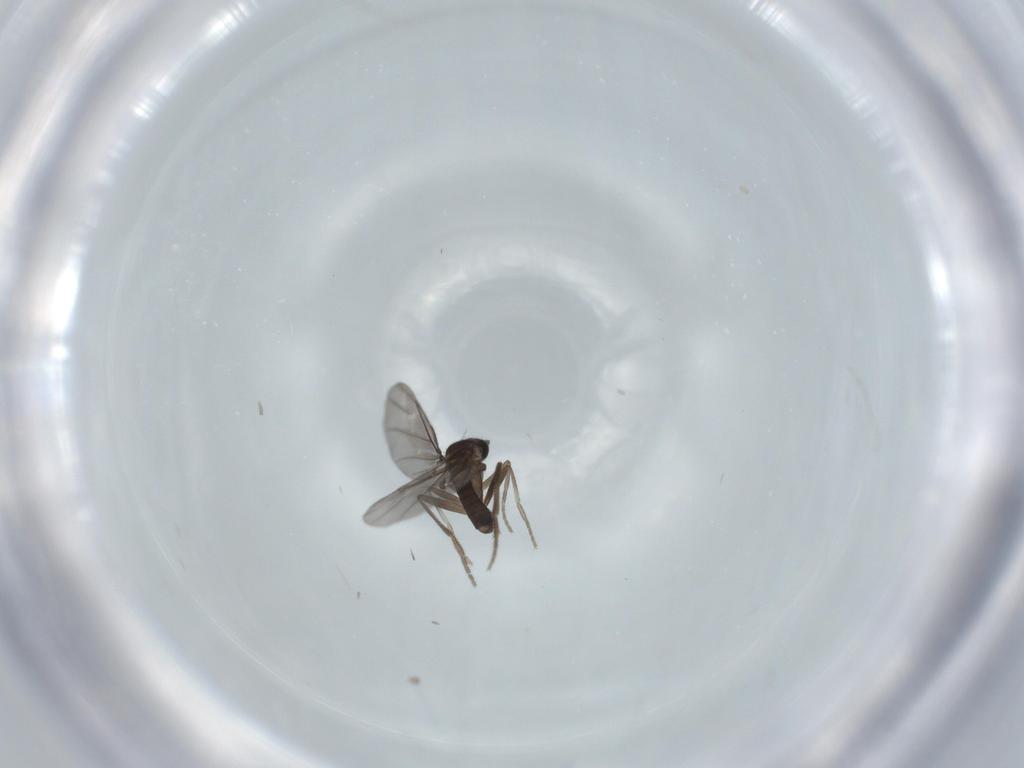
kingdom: Animalia
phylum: Arthropoda
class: Insecta
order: Diptera
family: Phoridae
